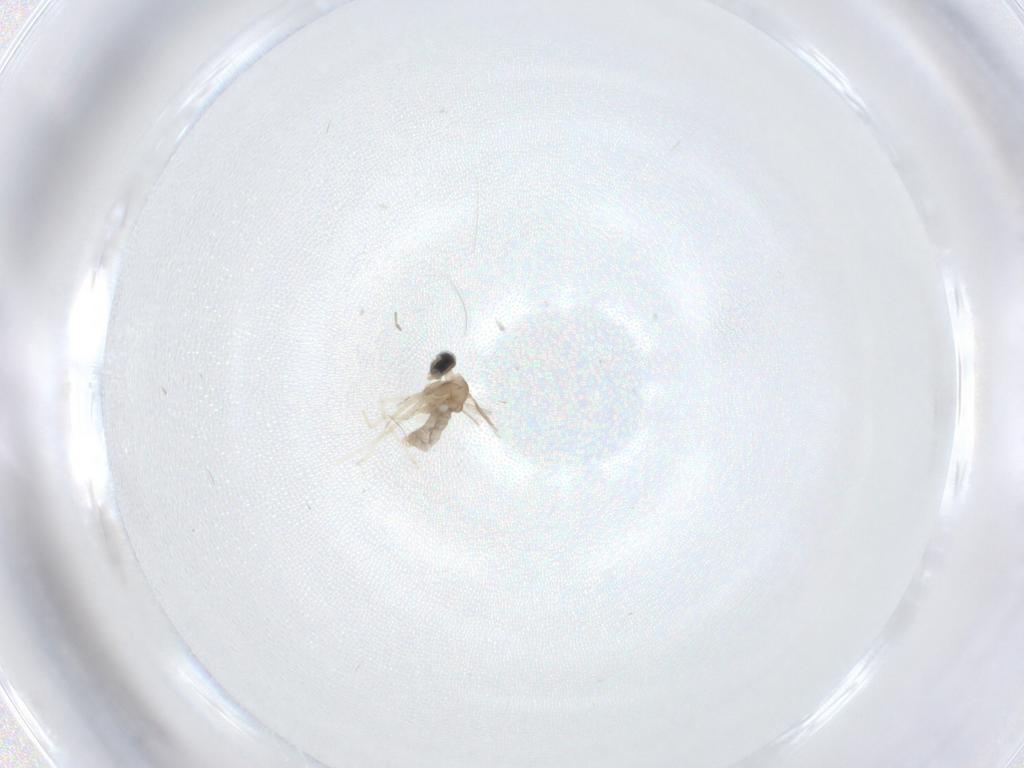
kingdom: Animalia
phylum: Arthropoda
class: Insecta
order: Diptera
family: Cecidomyiidae
